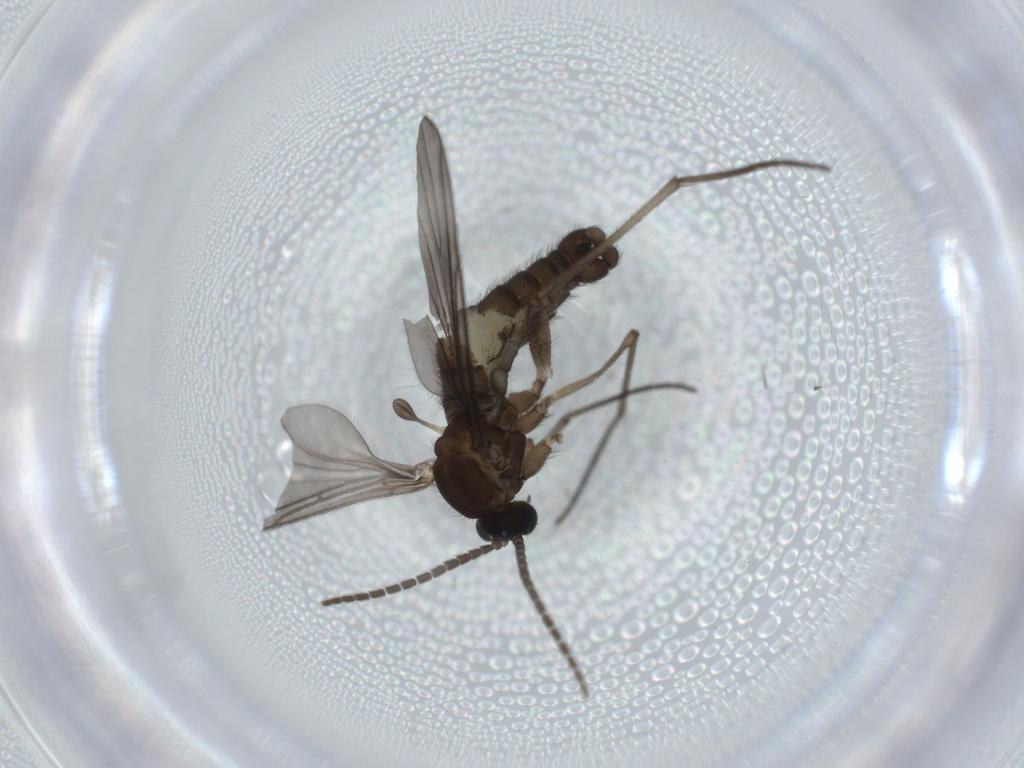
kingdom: Animalia
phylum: Arthropoda
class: Insecta
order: Diptera
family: Sciaridae
